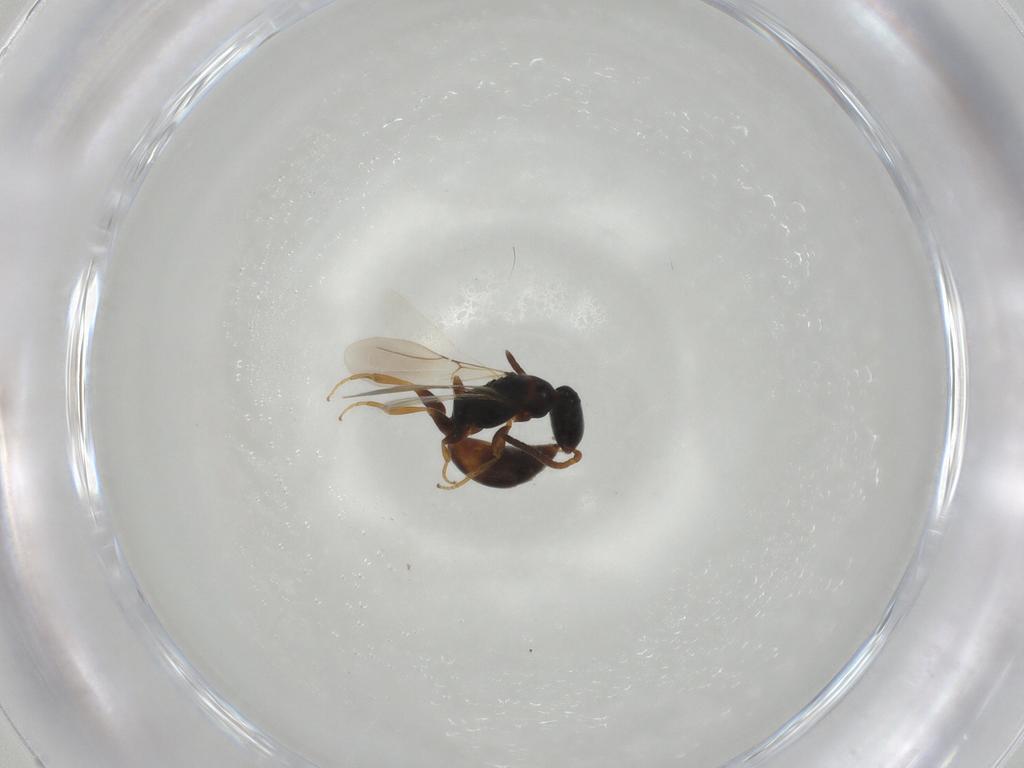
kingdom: Animalia
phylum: Arthropoda
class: Insecta
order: Hymenoptera
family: Bethylidae
